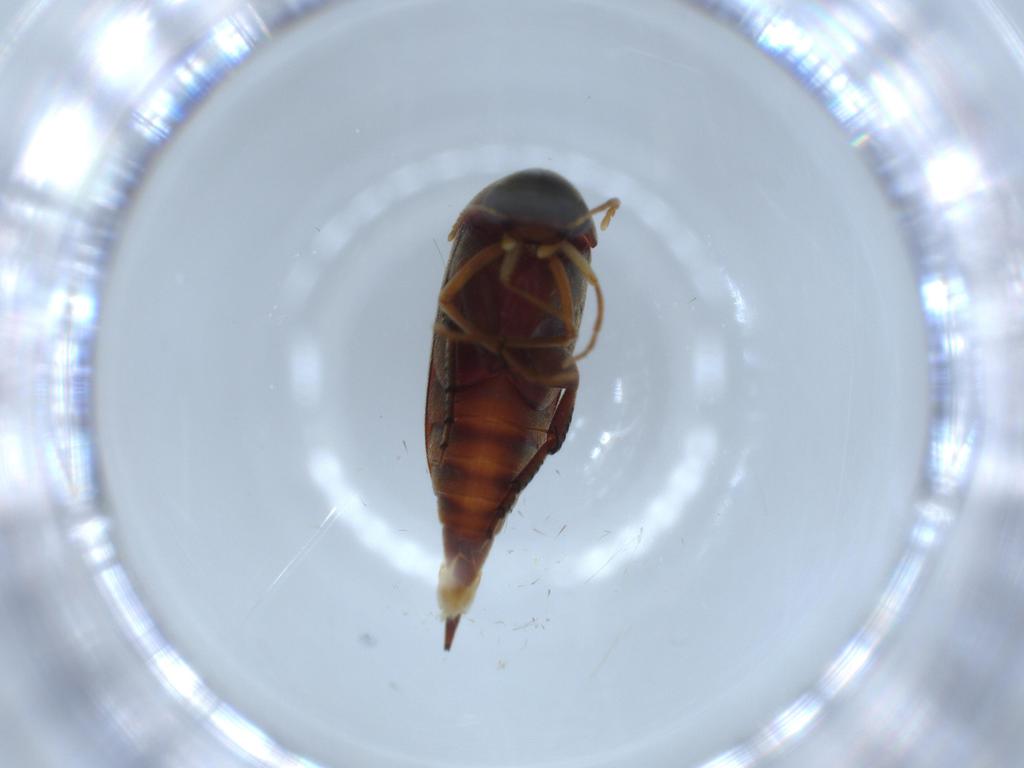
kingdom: Animalia
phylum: Arthropoda
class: Insecta
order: Coleoptera
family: Mordellidae
